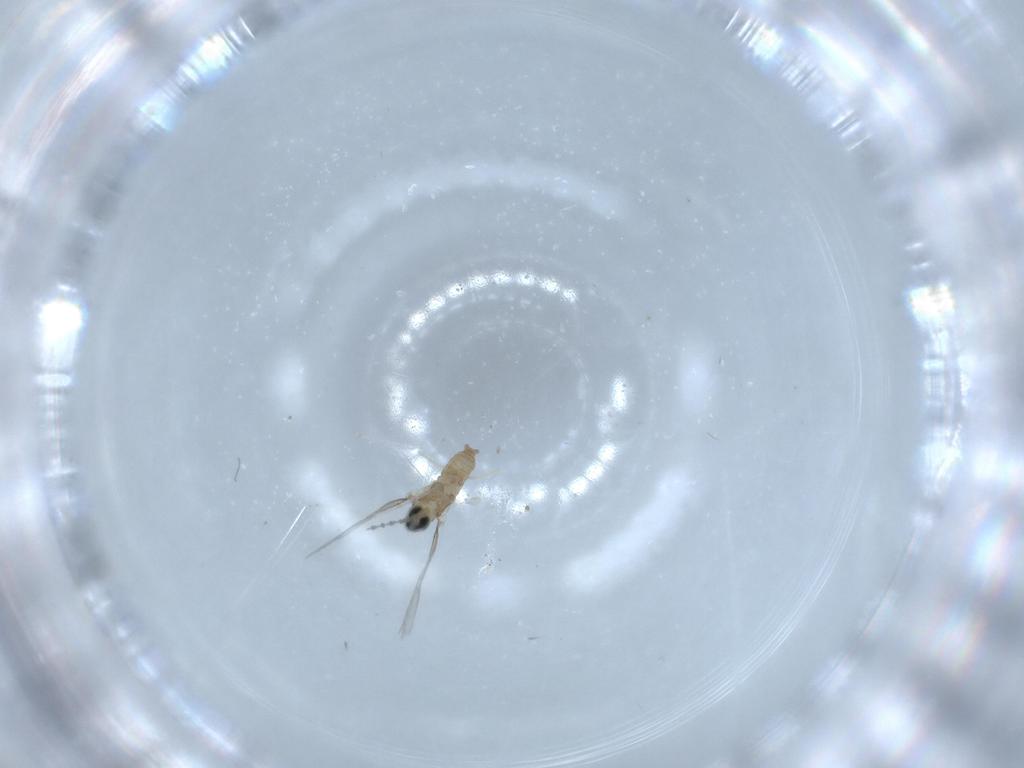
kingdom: Animalia
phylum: Arthropoda
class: Insecta
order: Diptera
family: Cecidomyiidae
